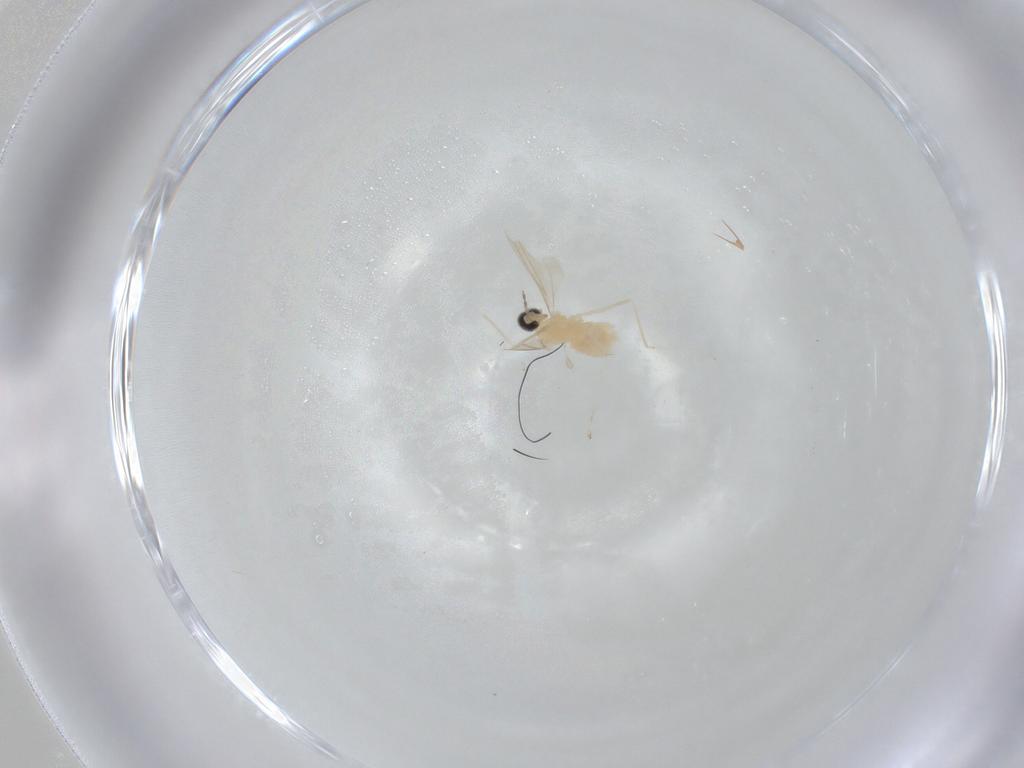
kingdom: Animalia
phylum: Arthropoda
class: Insecta
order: Diptera
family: Cecidomyiidae
